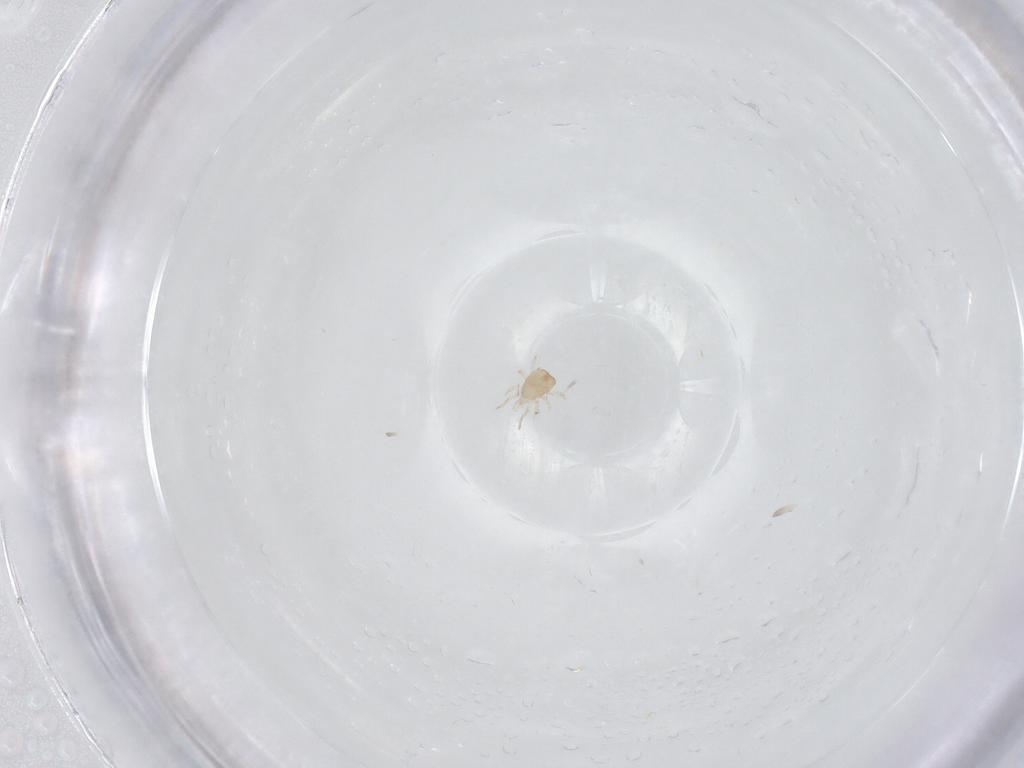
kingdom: Animalia
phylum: Arthropoda
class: Arachnida
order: Trombidiformes
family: Eupodidae
